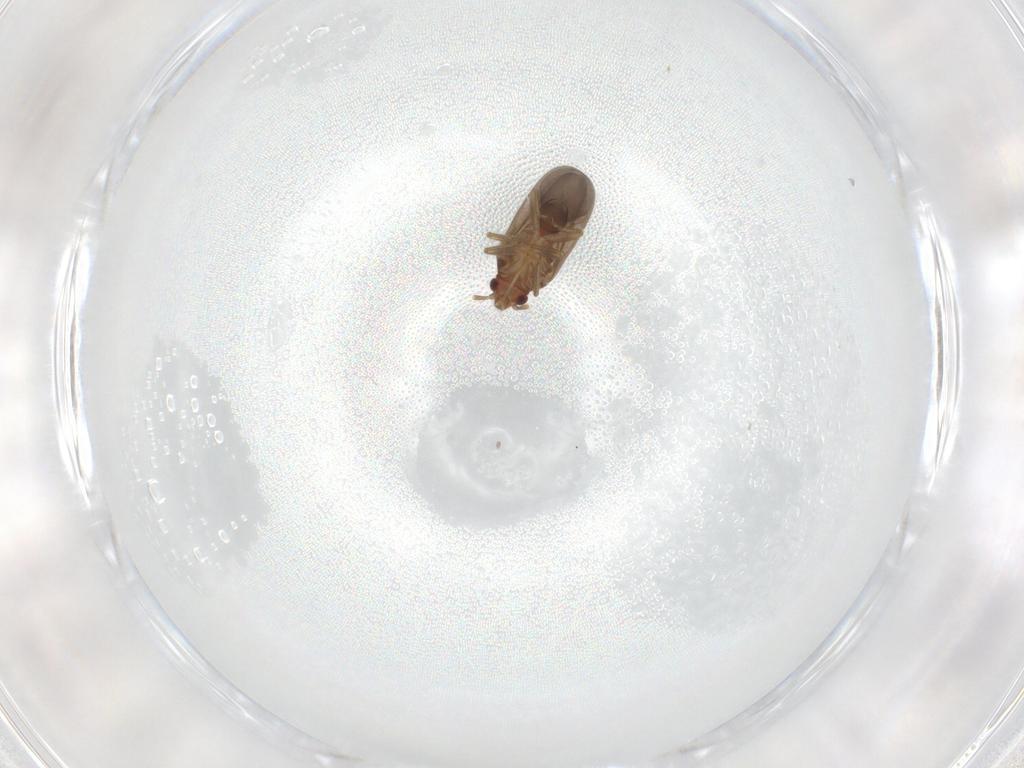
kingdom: Animalia
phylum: Arthropoda
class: Insecta
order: Hemiptera
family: Ceratocombidae
